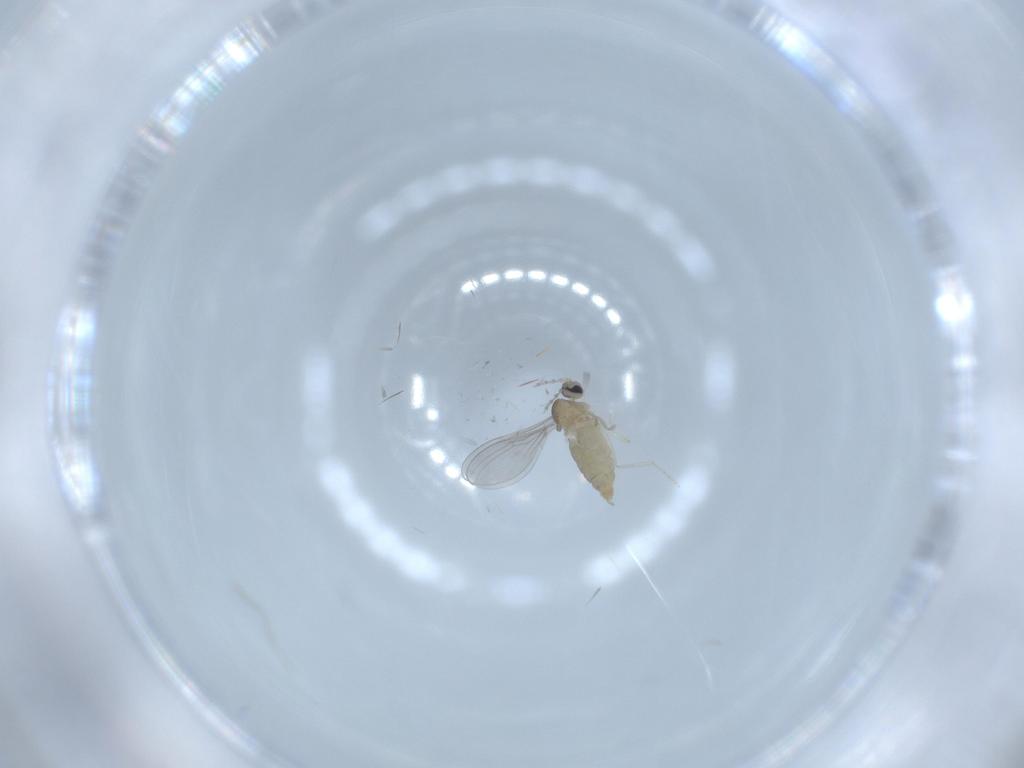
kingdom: Animalia
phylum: Arthropoda
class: Insecta
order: Diptera
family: Cecidomyiidae
